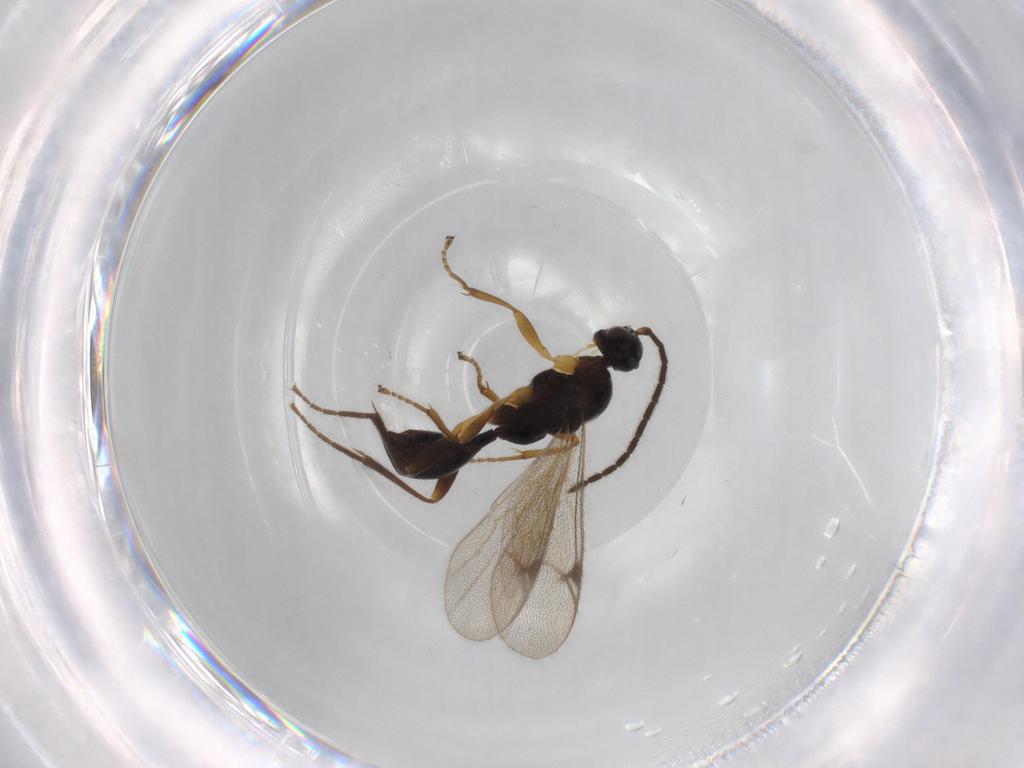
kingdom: Animalia
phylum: Arthropoda
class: Insecta
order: Hymenoptera
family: Proctotrupidae
